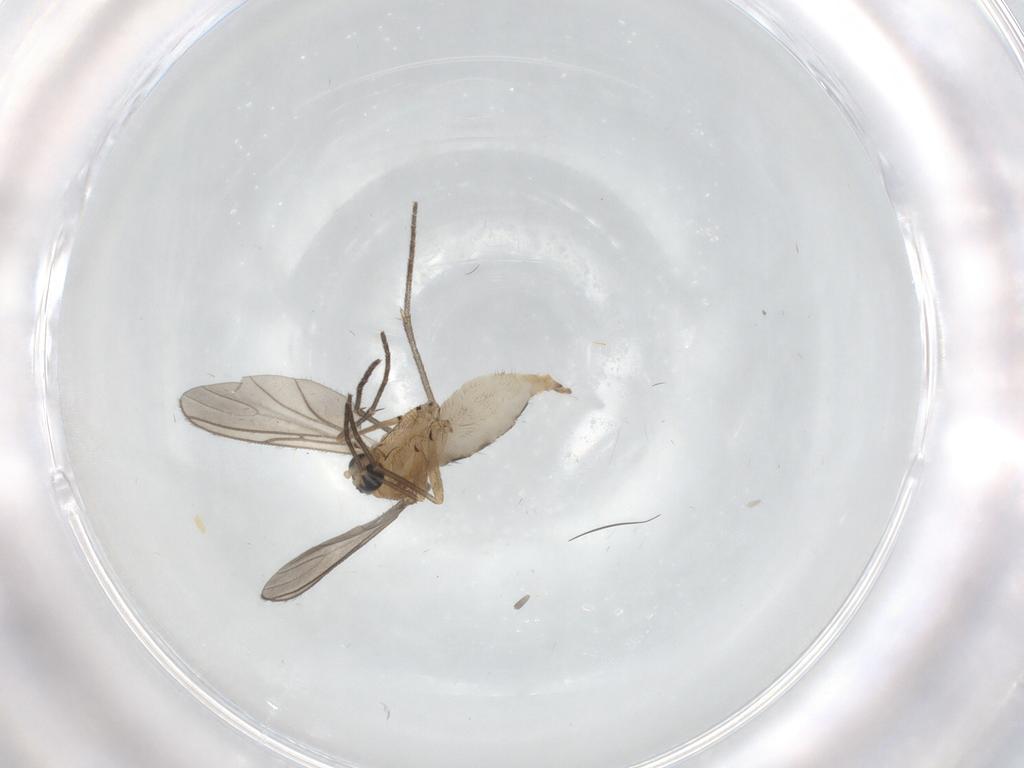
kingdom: Animalia
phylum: Arthropoda
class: Insecta
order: Diptera
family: Sciaridae
